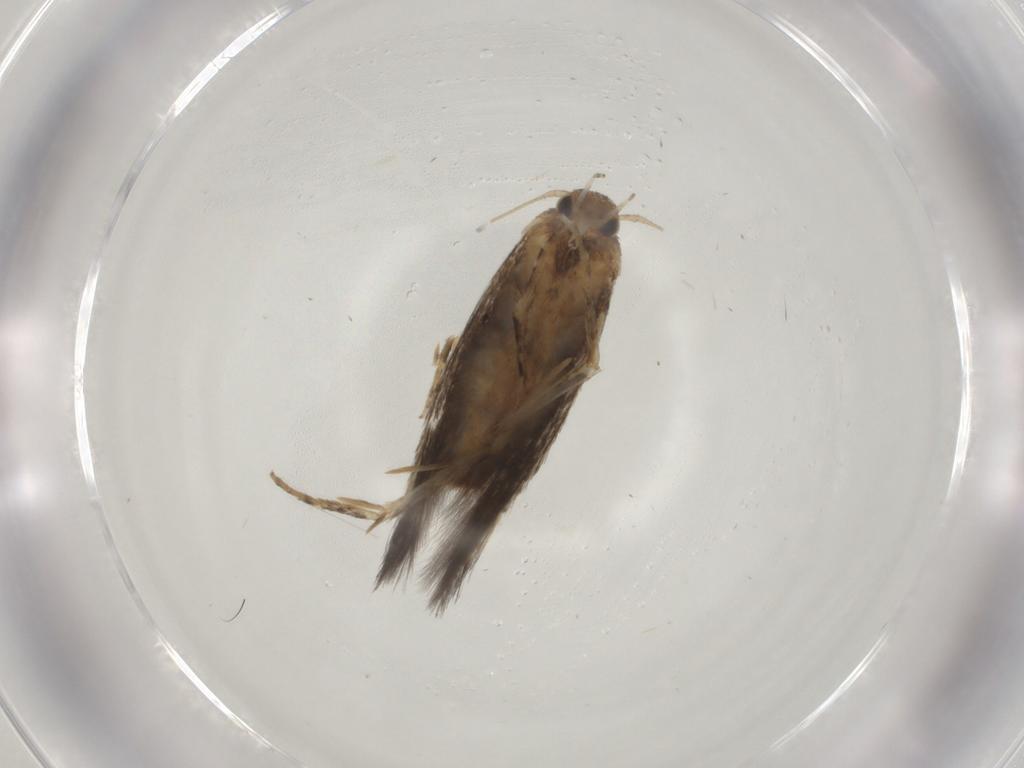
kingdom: Animalia
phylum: Arthropoda
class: Insecta
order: Lepidoptera
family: Elachistidae
